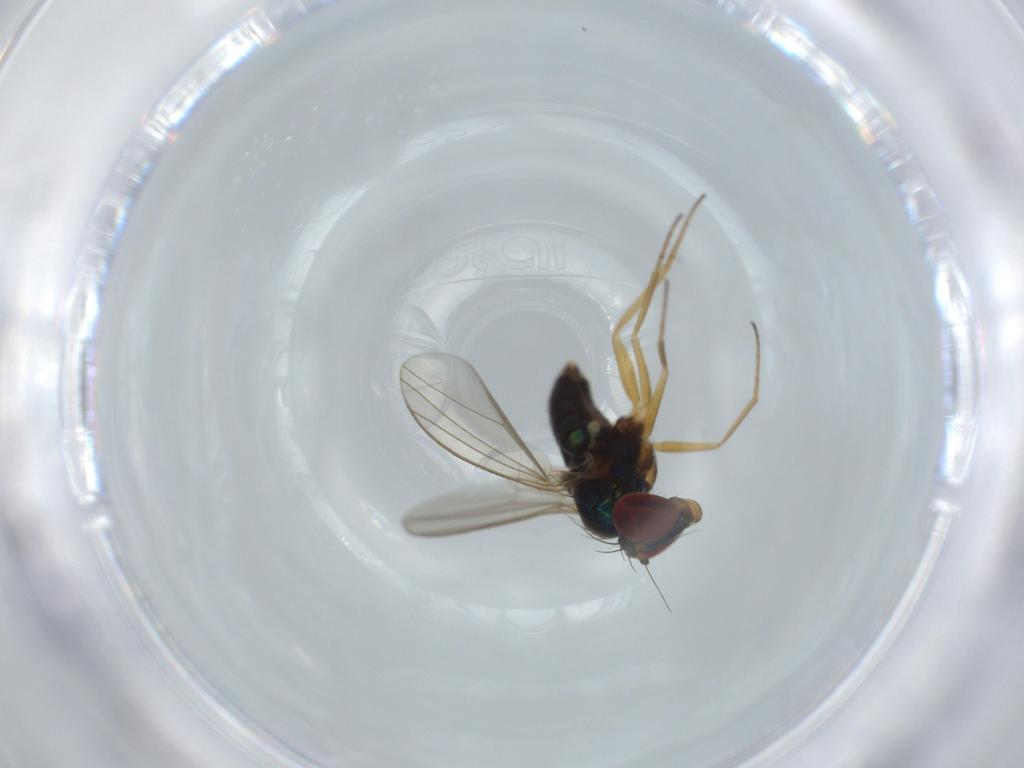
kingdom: Animalia
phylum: Arthropoda
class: Insecta
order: Diptera
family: Dolichopodidae
